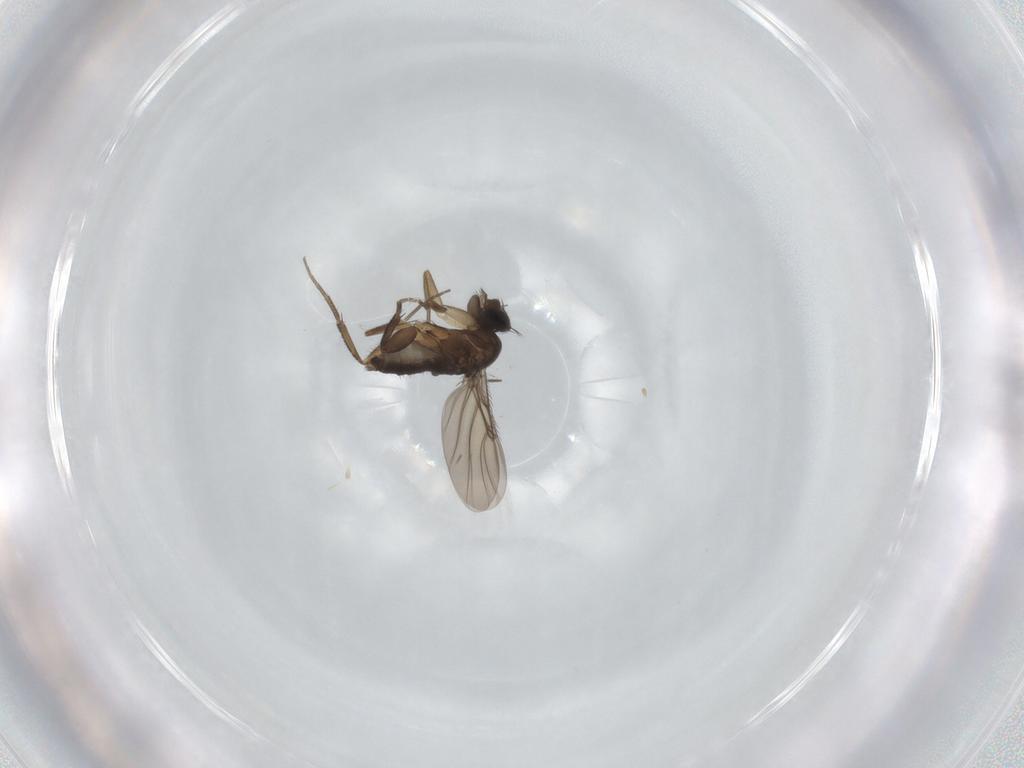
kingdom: Animalia
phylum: Arthropoda
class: Insecta
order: Diptera
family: Phoridae
